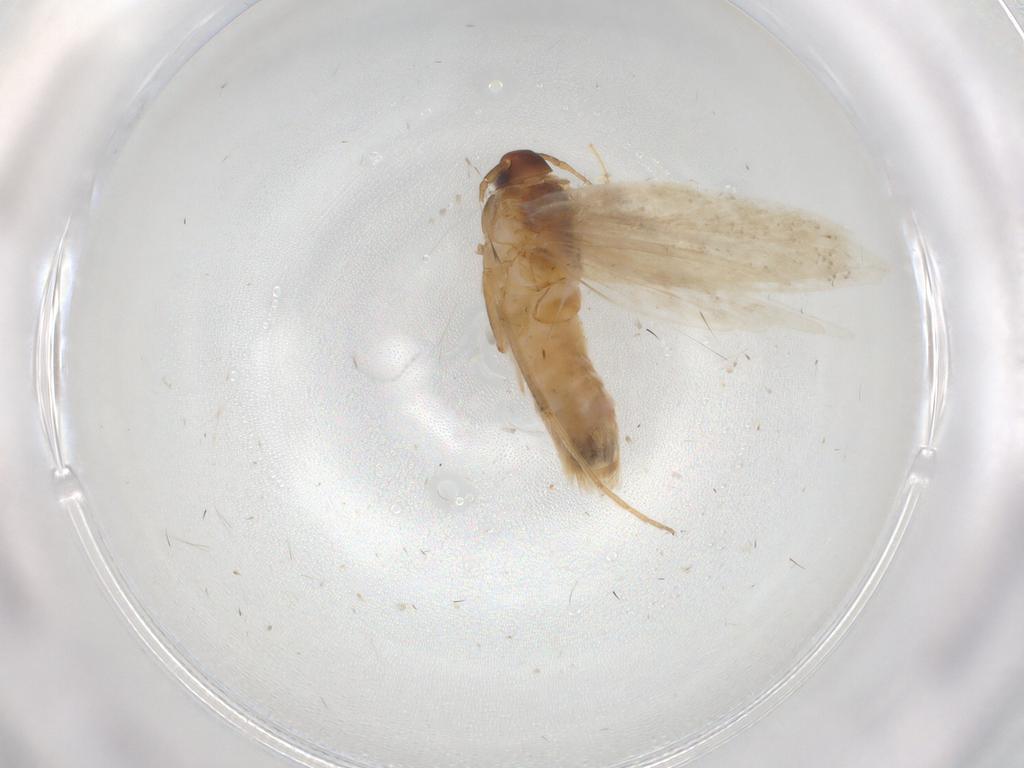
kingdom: Animalia
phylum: Arthropoda
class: Insecta
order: Lepidoptera
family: Gelechiidae
